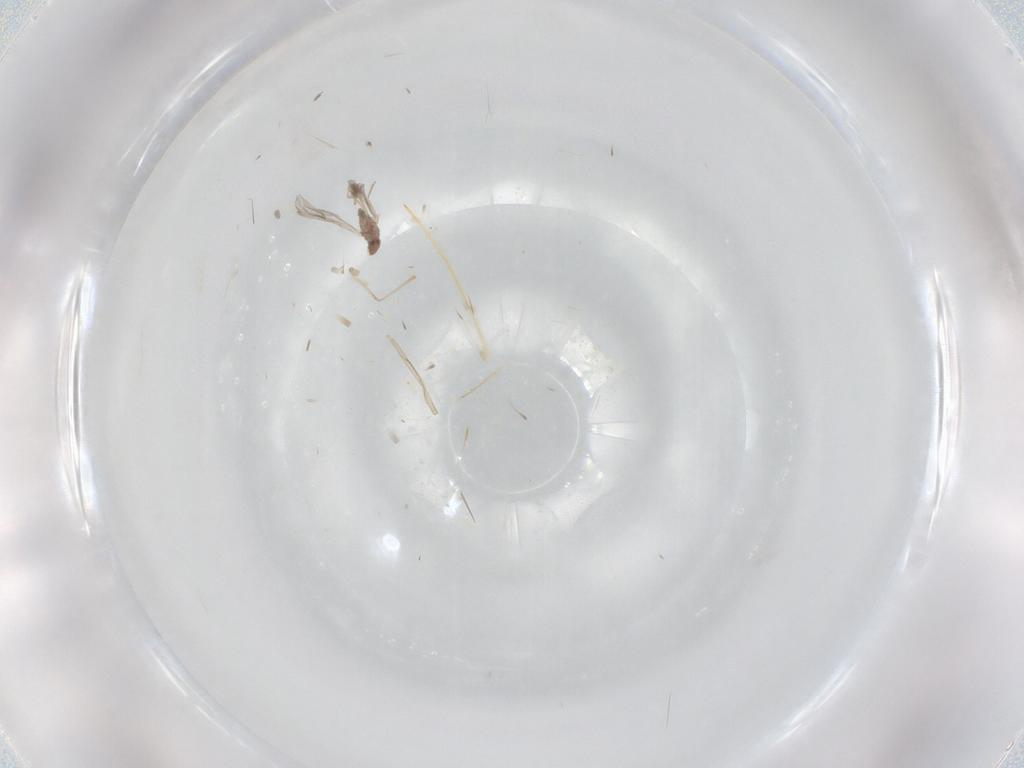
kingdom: Animalia
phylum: Arthropoda
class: Insecta
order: Diptera
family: Cecidomyiidae
